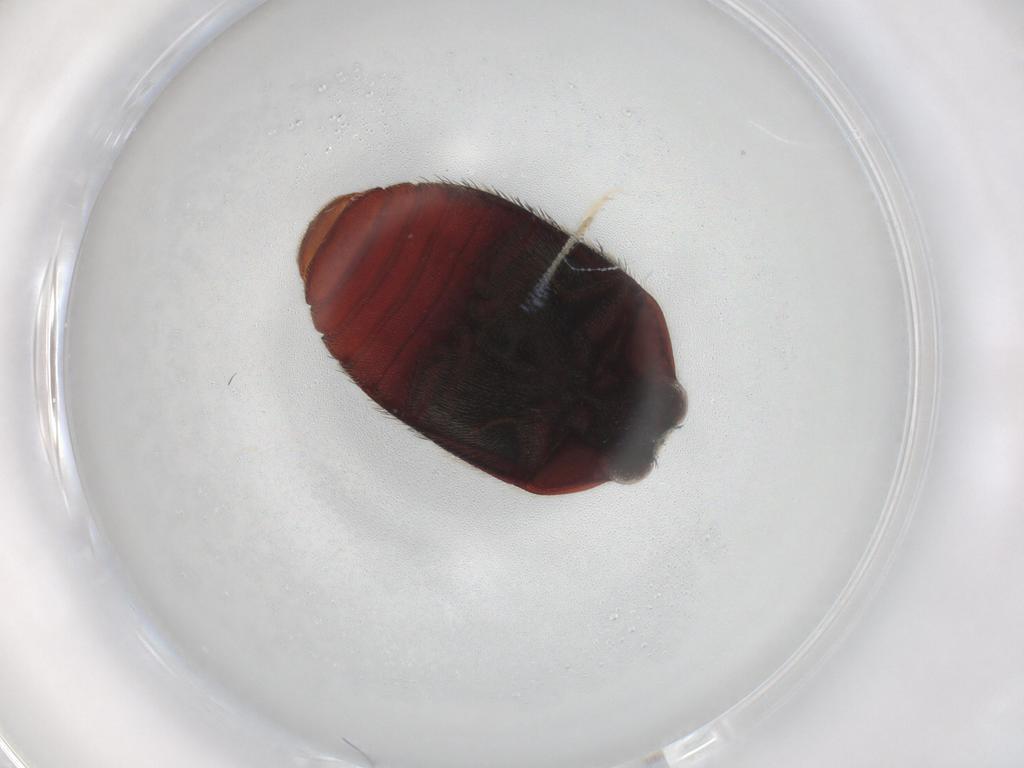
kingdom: Animalia
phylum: Arthropoda
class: Insecta
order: Coleoptera
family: Dermestidae
